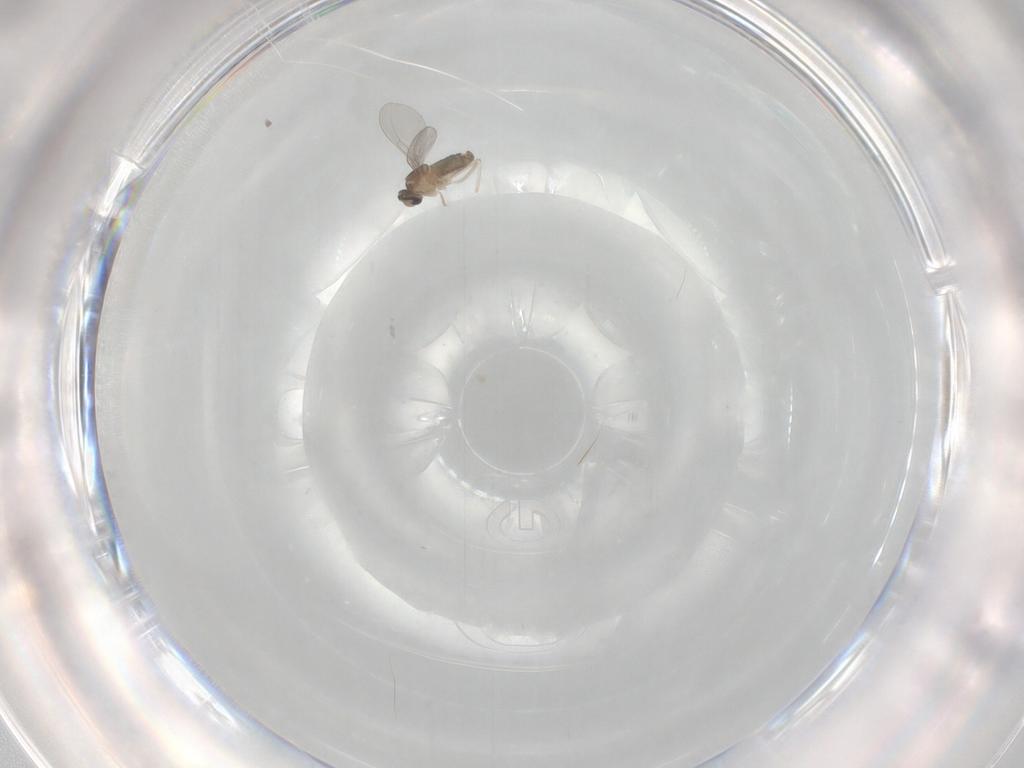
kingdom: Animalia
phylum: Arthropoda
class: Insecta
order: Diptera
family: Cecidomyiidae
